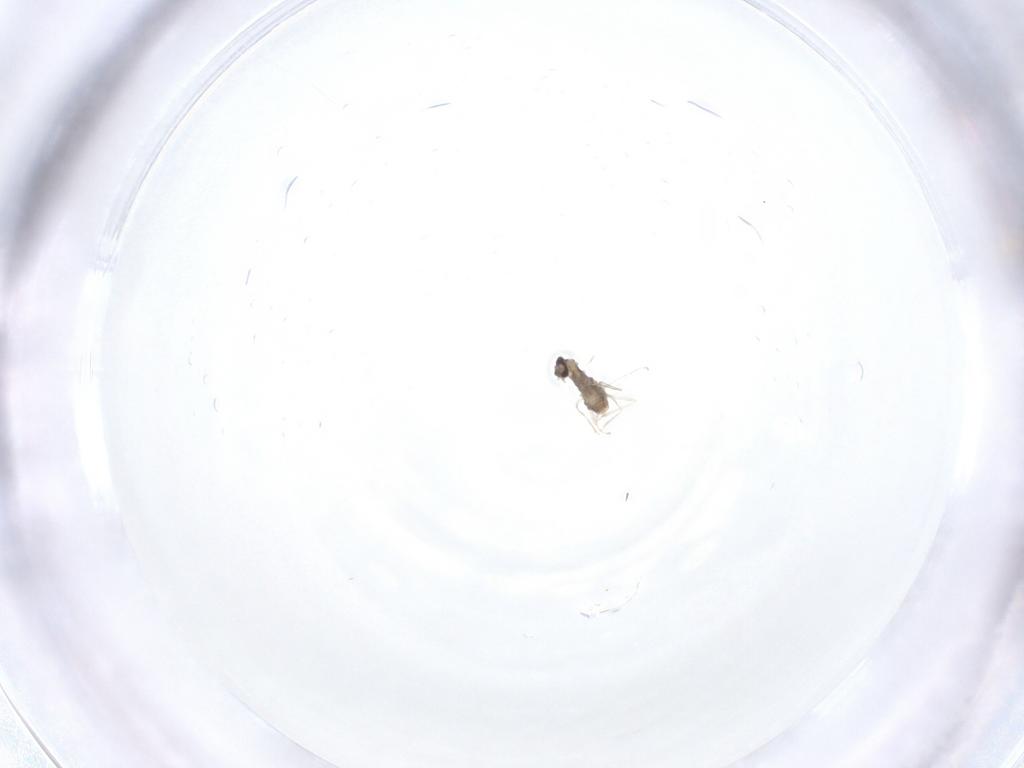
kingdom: Animalia
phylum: Arthropoda
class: Insecta
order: Diptera
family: Cecidomyiidae
